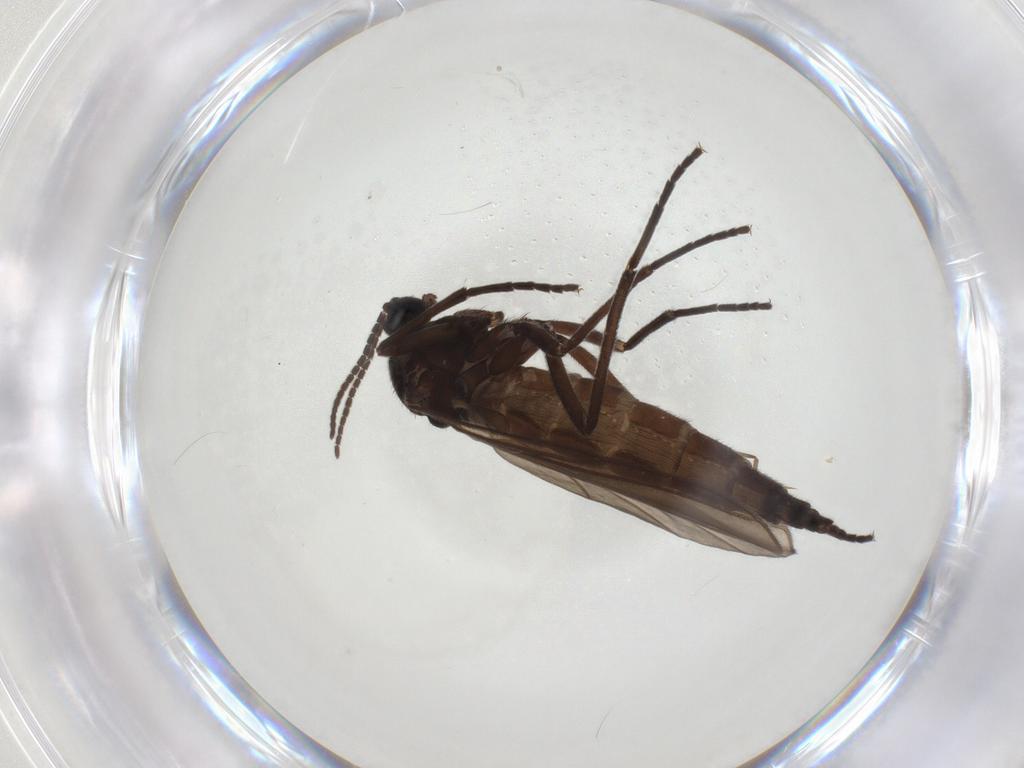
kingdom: Animalia
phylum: Arthropoda
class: Insecta
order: Diptera
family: Sciaridae
